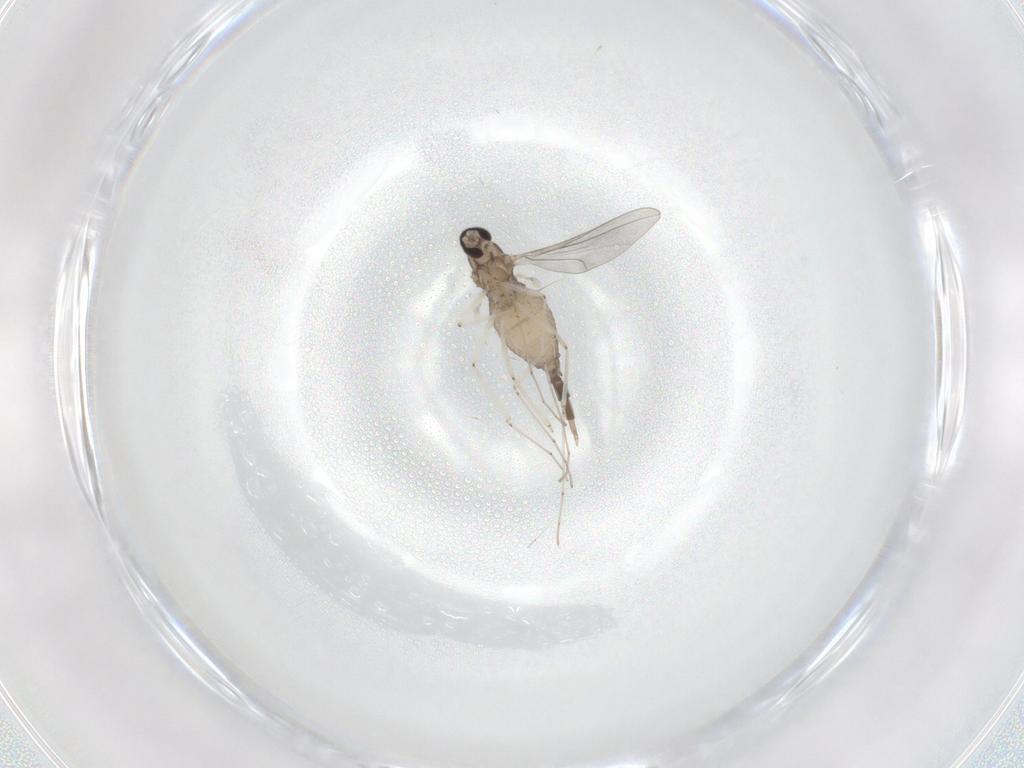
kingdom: Animalia
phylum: Arthropoda
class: Insecta
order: Diptera
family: Cecidomyiidae
